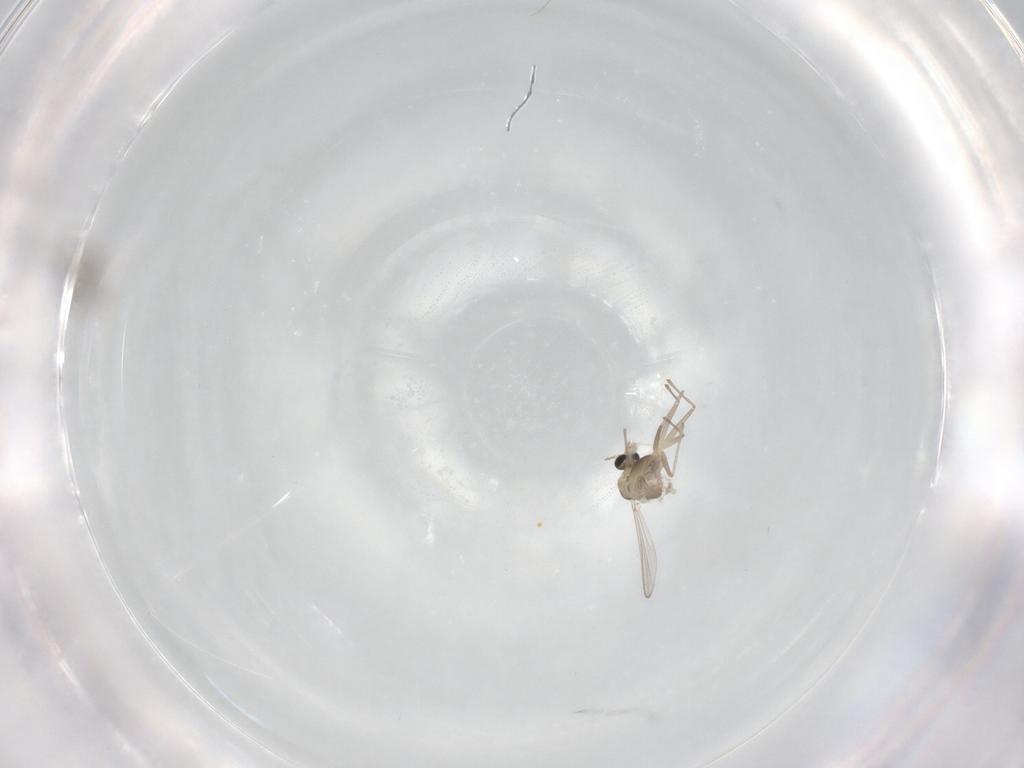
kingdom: Animalia
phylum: Arthropoda
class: Insecta
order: Diptera
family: Chironomidae
